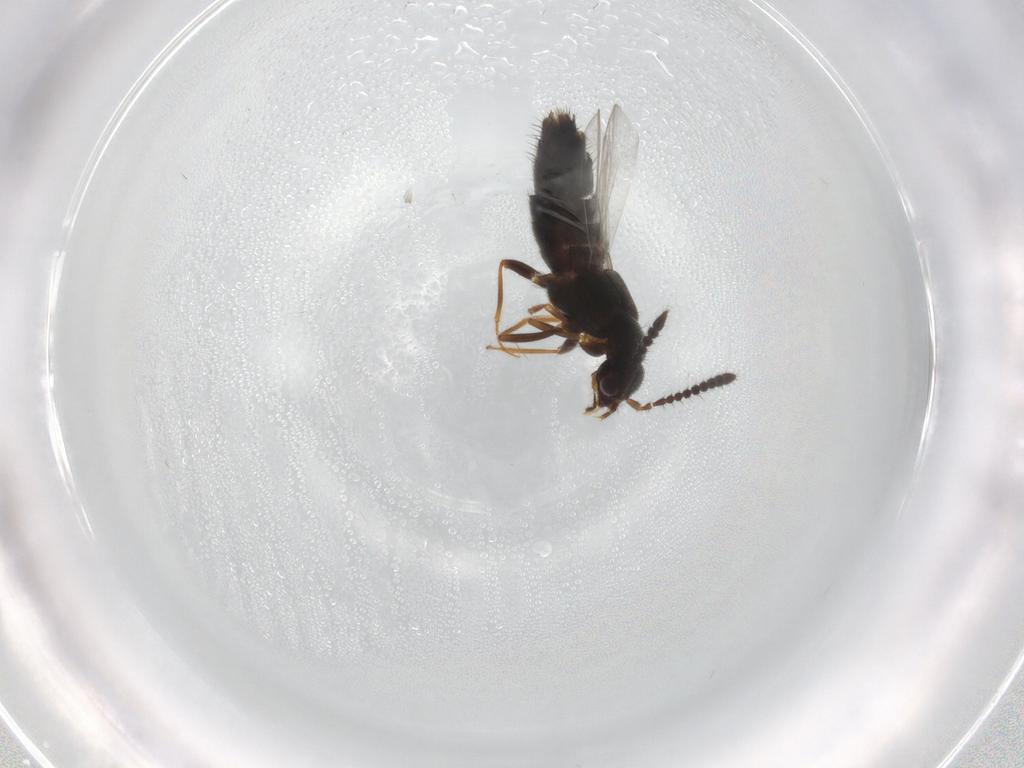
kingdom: Animalia
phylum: Arthropoda
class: Insecta
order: Coleoptera
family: Staphylinidae
